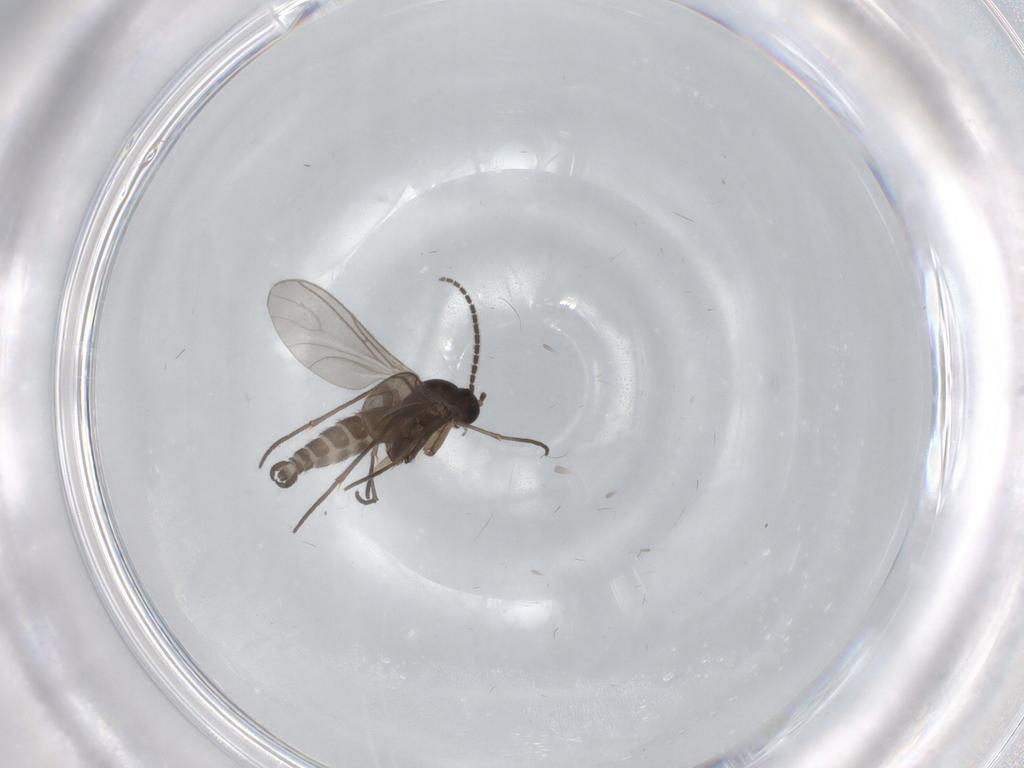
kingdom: Animalia
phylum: Arthropoda
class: Insecta
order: Diptera
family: Sciaridae
